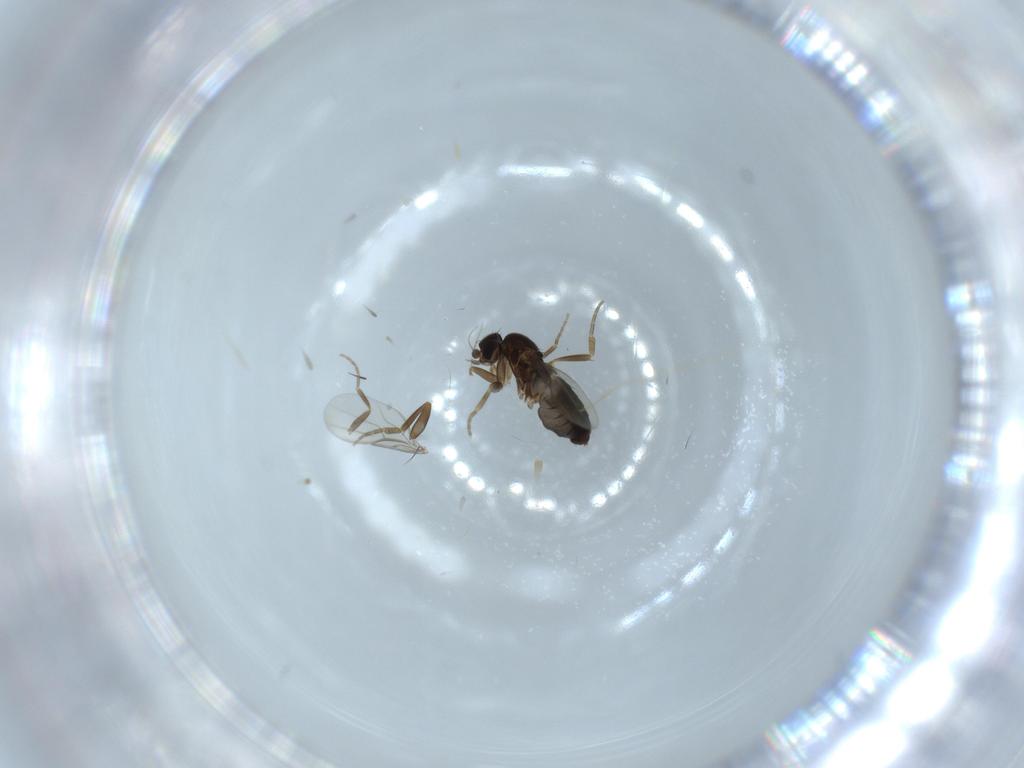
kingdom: Animalia
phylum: Arthropoda
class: Insecta
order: Diptera
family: Phoridae
